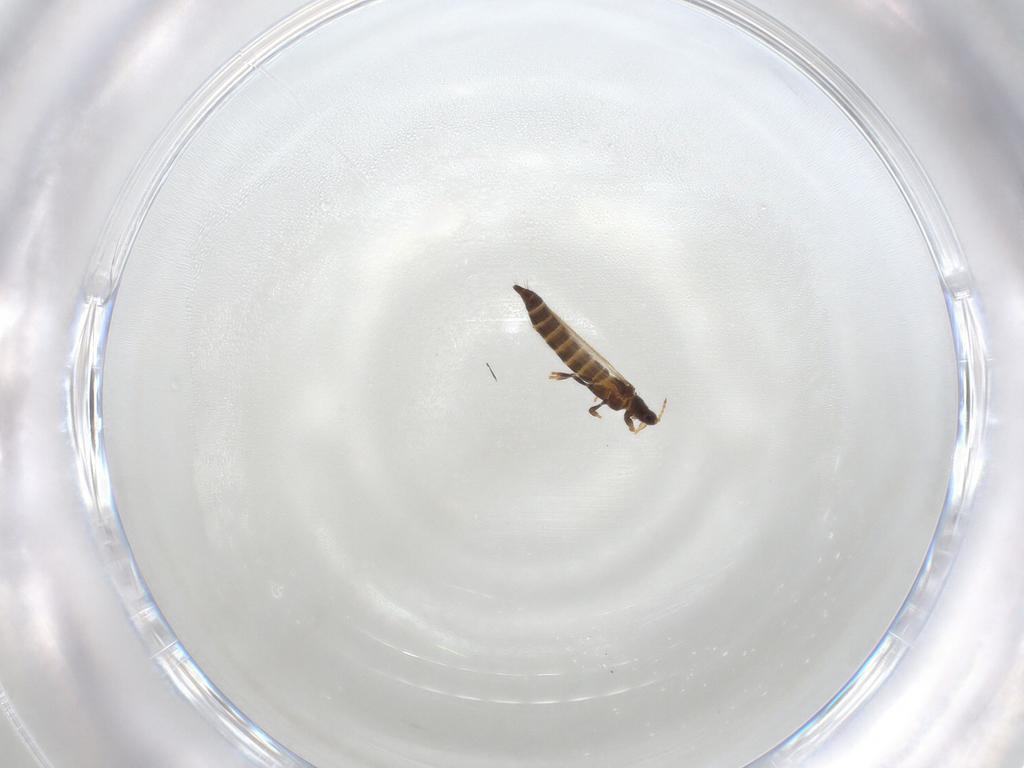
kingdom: Animalia
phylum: Arthropoda
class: Insecta
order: Thysanoptera
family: Thripidae
